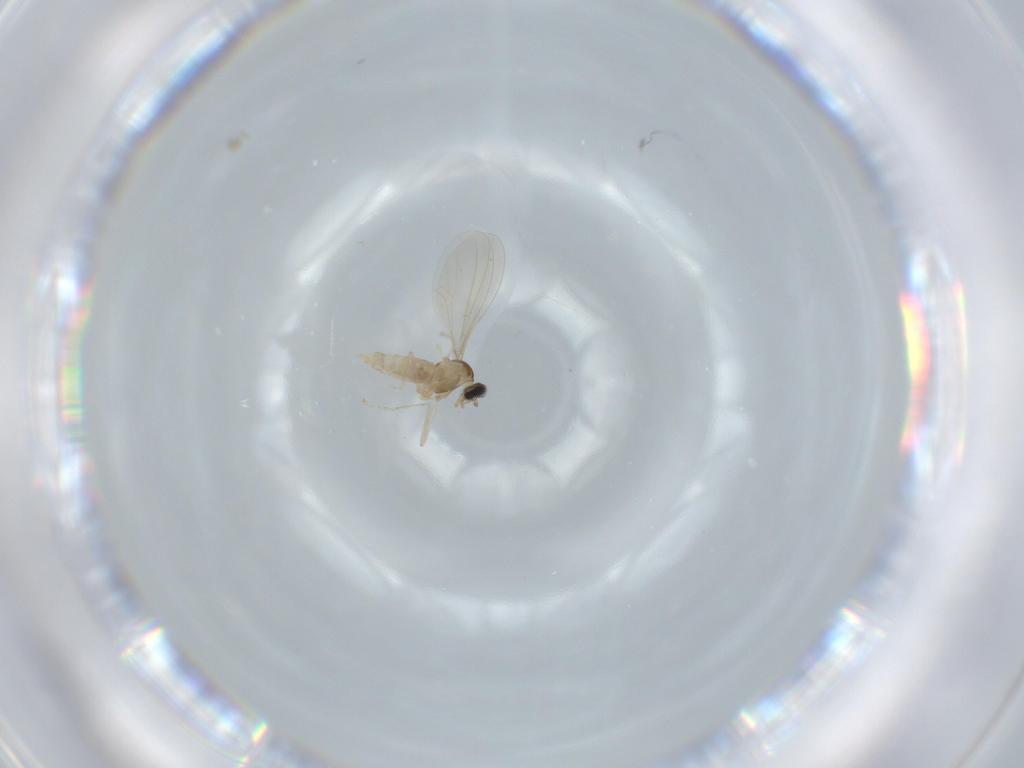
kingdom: Animalia
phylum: Arthropoda
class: Insecta
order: Diptera
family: Cecidomyiidae
